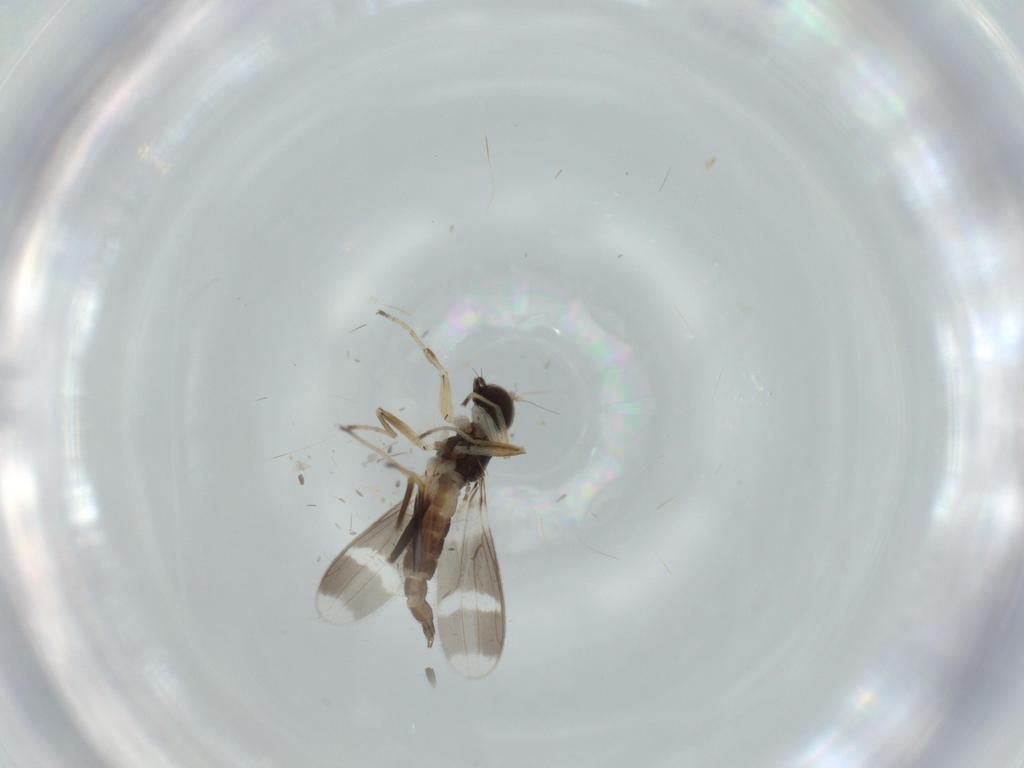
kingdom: Animalia
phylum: Arthropoda
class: Insecta
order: Diptera
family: Hybotidae
